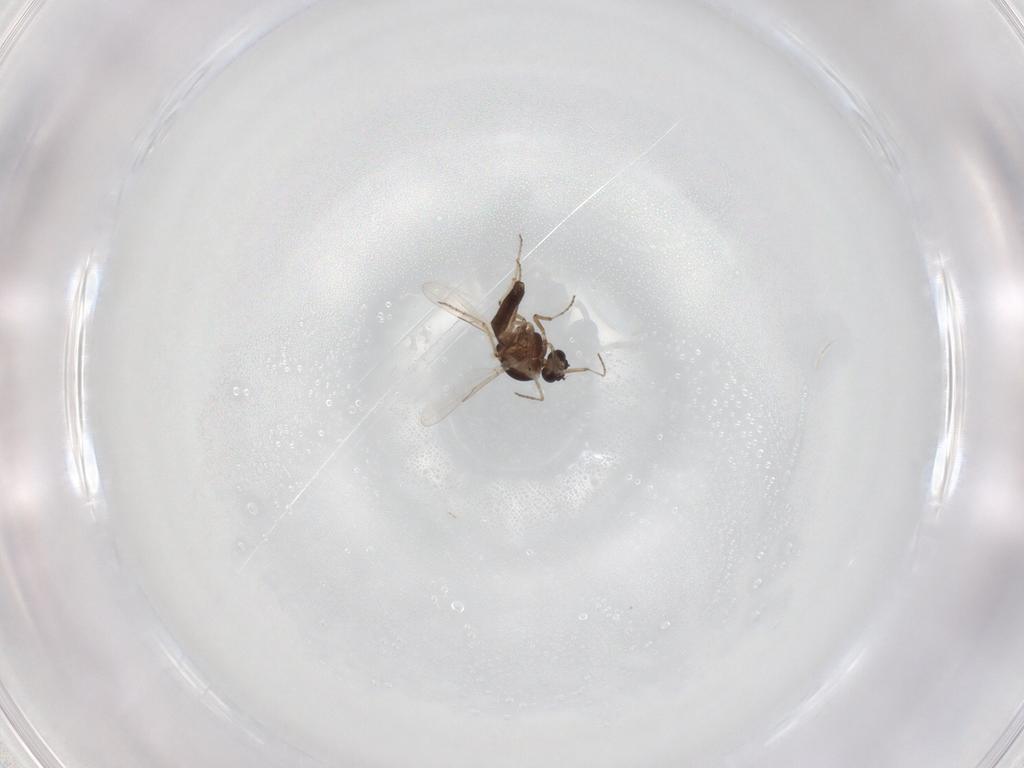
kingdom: Animalia
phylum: Arthropoda
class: Insecta
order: Diptera
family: Ceratopogonidae
